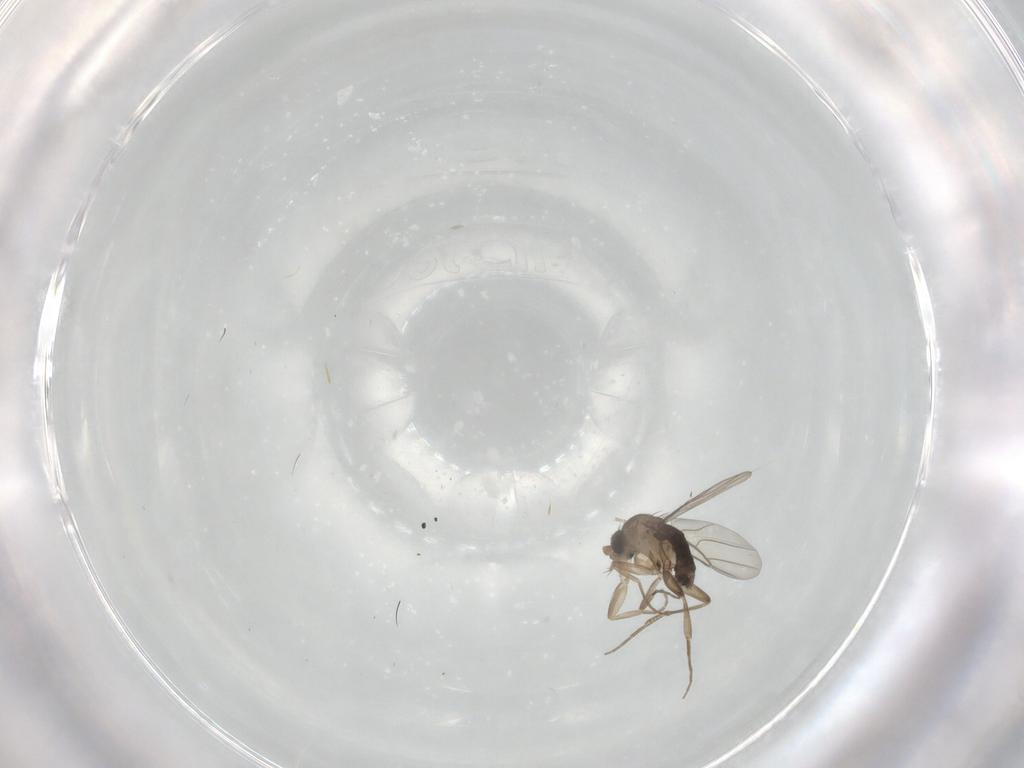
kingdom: Animalia
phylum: Arthropoda
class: Insecta
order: Diptera
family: Phoridae
